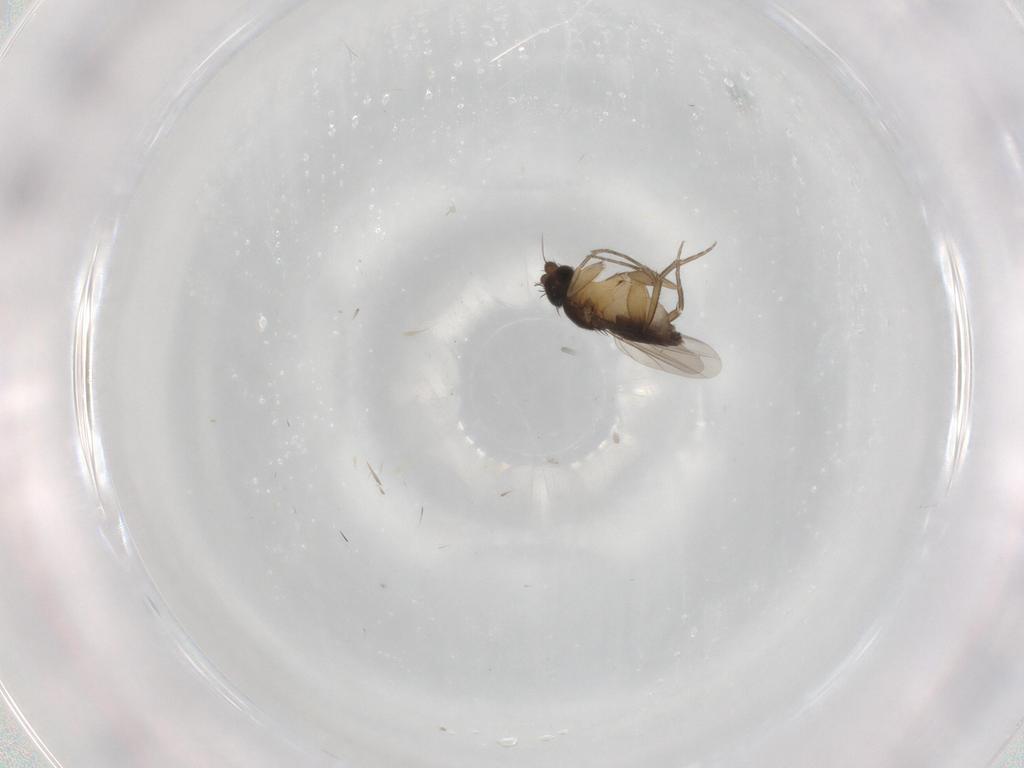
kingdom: Animalia
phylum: Arthropoda
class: Insecta
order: Diptera
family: Phoridae
